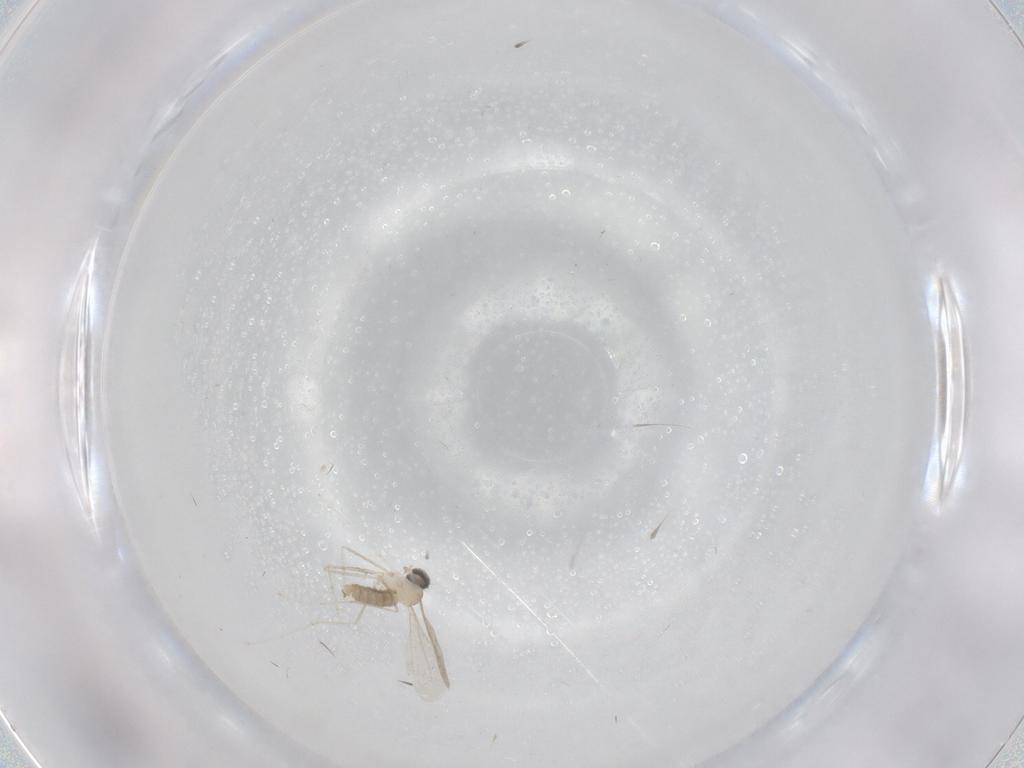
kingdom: Animalia
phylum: Arthropoda
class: Insecta
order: Diptera
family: Cecidomyiidae
